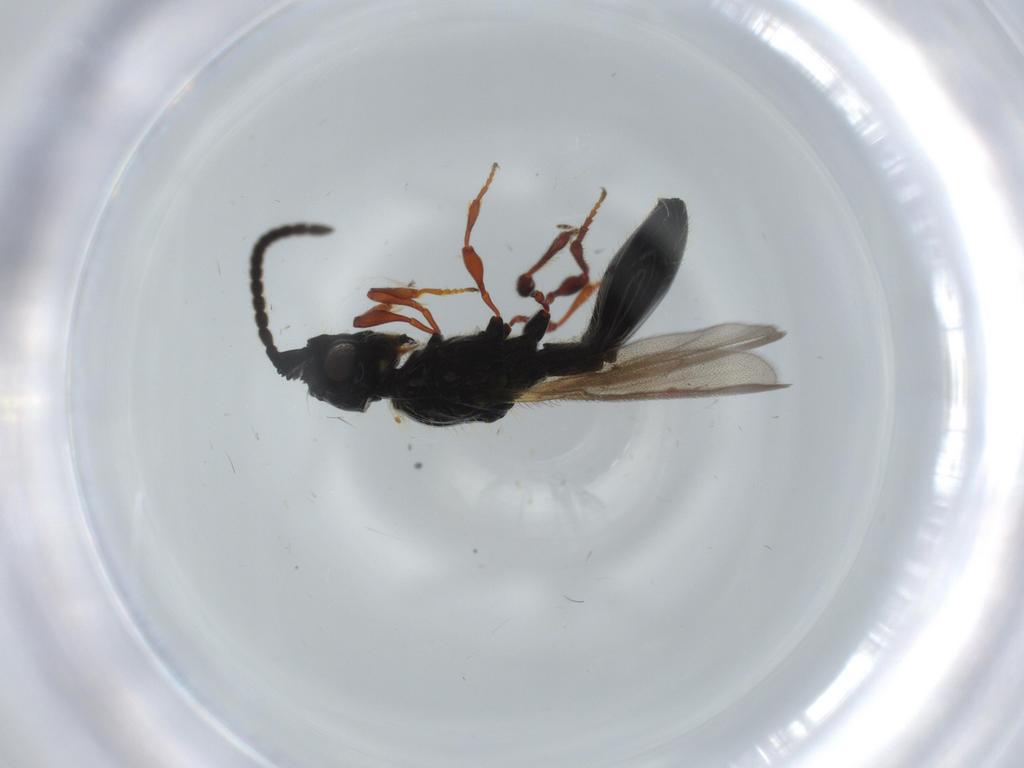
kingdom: Animalia
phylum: Arthropoda
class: Insecta
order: Hymenoptera
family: Diapriidae
